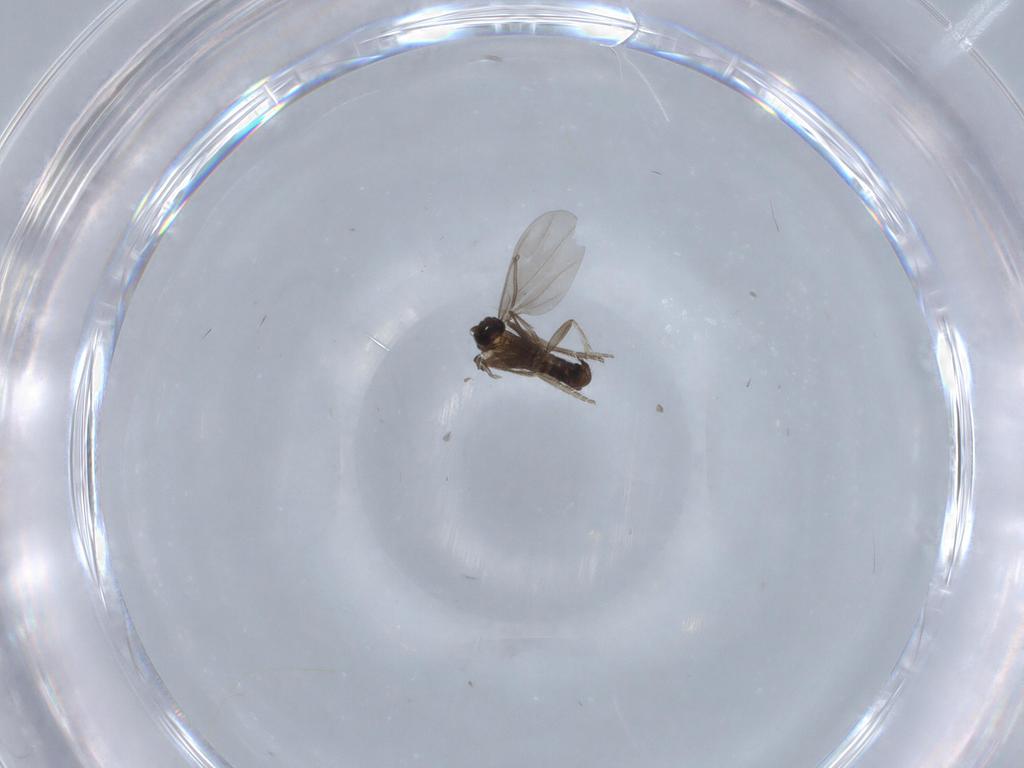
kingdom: Animalia
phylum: Arthropoda
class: Insecta
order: Diptera
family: Phoridae
